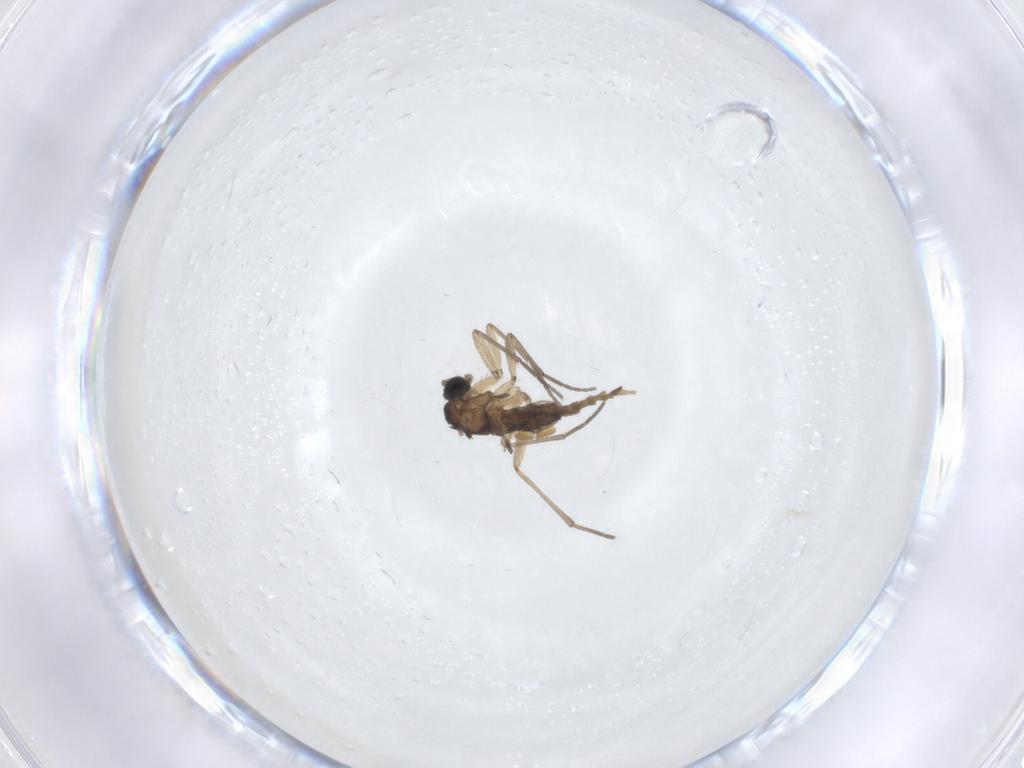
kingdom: Animalia
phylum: Arthropoda
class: Insecta
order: Diptera
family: Sciaridae
